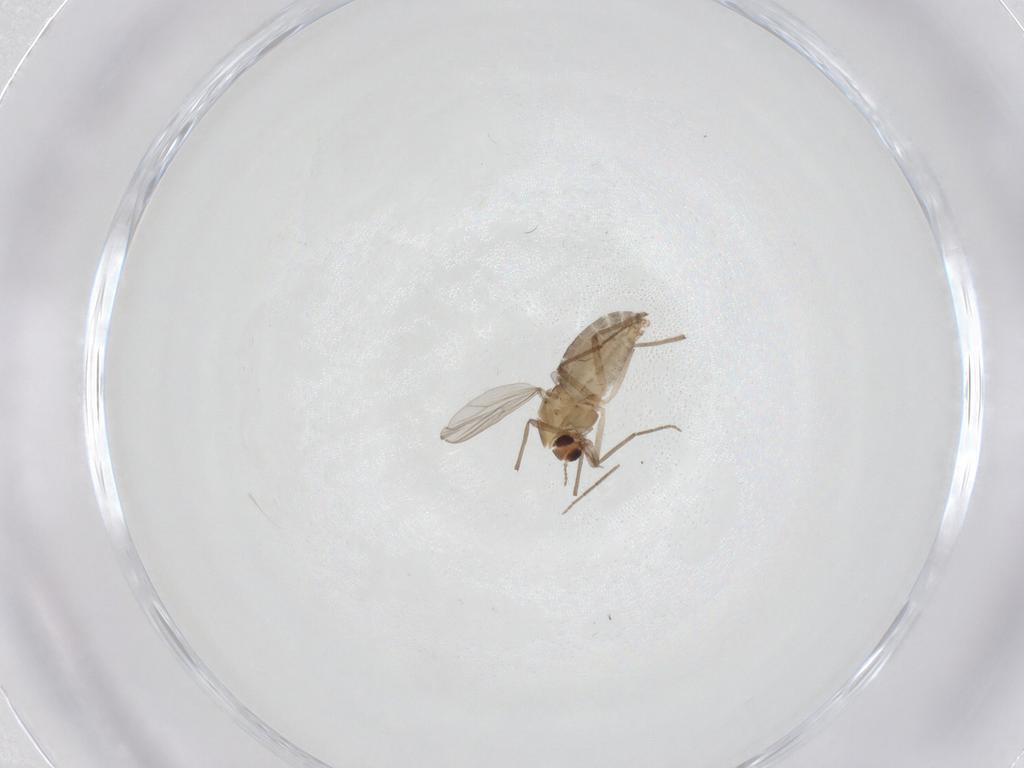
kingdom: Animalia
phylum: Arthropoda
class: Insecta
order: Diptera
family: Chironomidae
